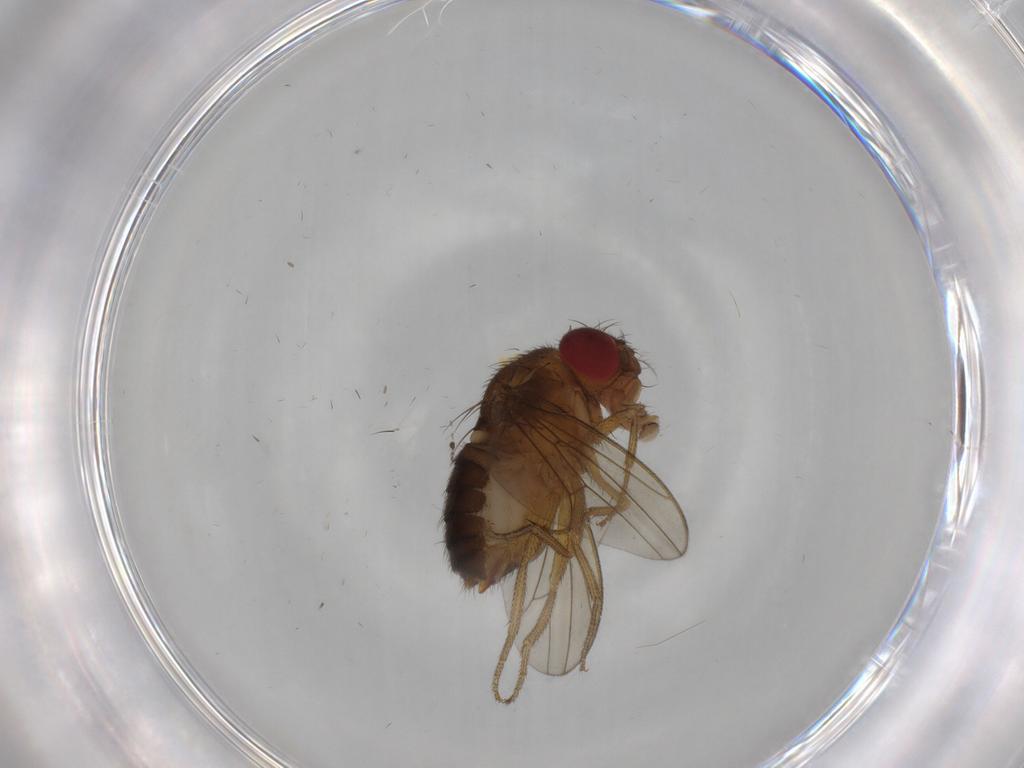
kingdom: Animalia
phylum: Arthropoda
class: Insecta
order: Diptera
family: Drosophilidae
